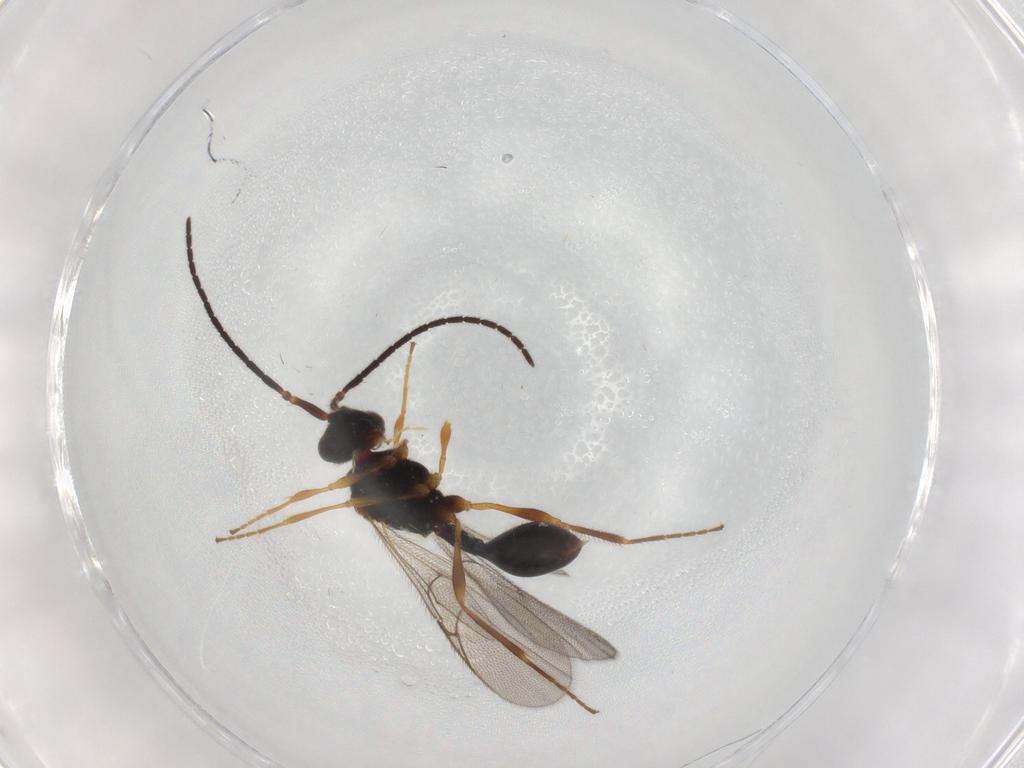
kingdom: Animalia
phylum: Arthropoda
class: Insecta
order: Hymenoptera
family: Diapriidae
